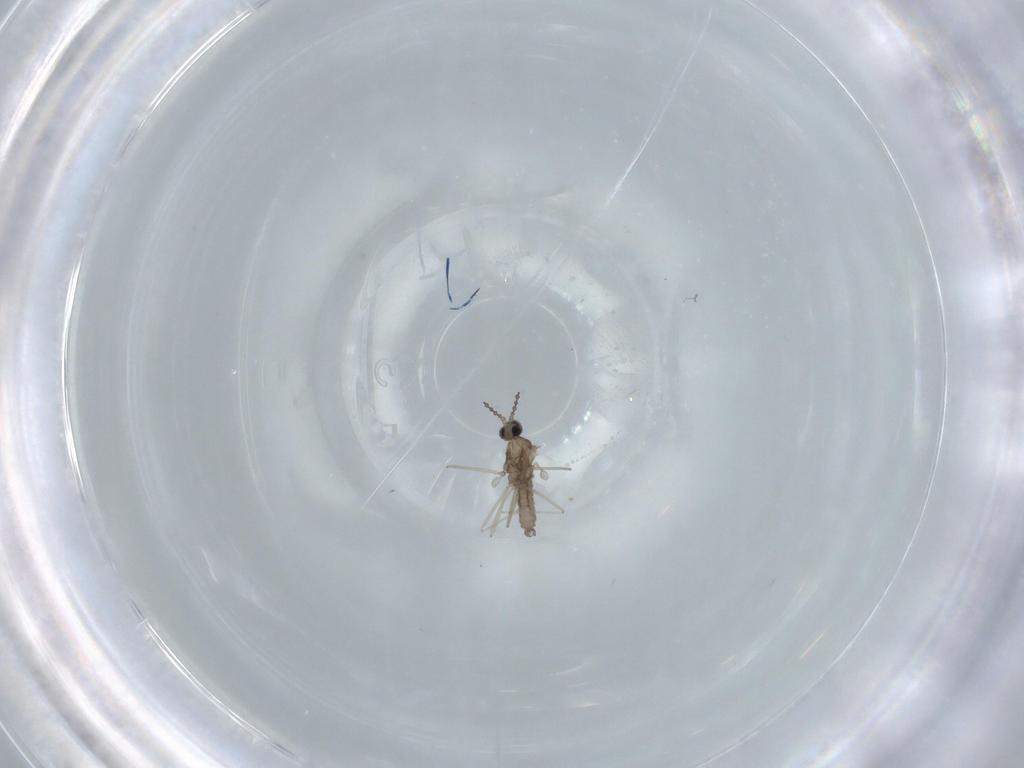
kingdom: Animalia
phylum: Arthropoda
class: Insecta
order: Diptera
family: Cecidomyiidae
